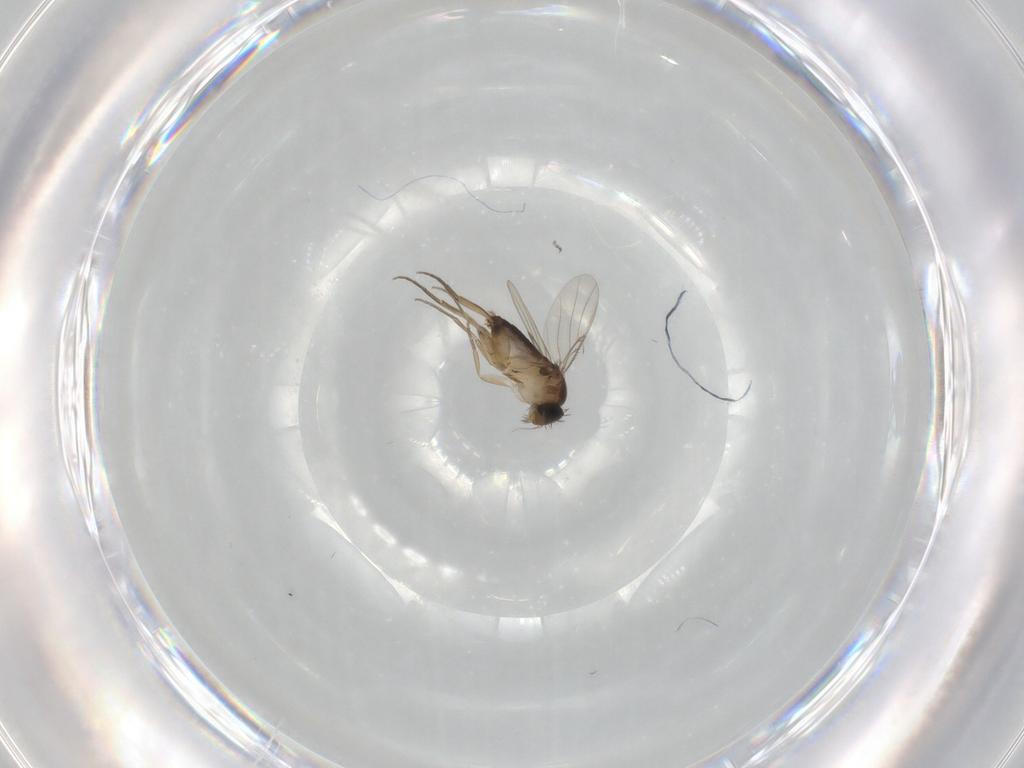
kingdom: Animalia
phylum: Arthropoda
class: Insecta
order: Diptera
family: Chironomidae
